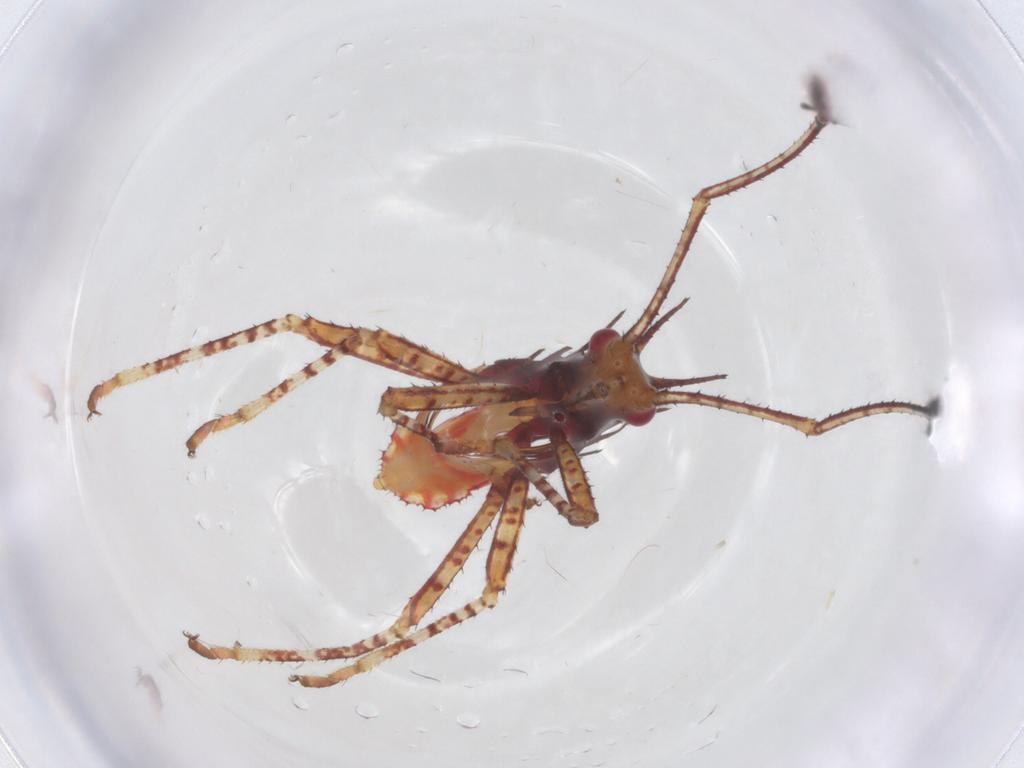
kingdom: Animalia
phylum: Arthropoda
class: Insecta
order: Hemiptera
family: Coreidae
